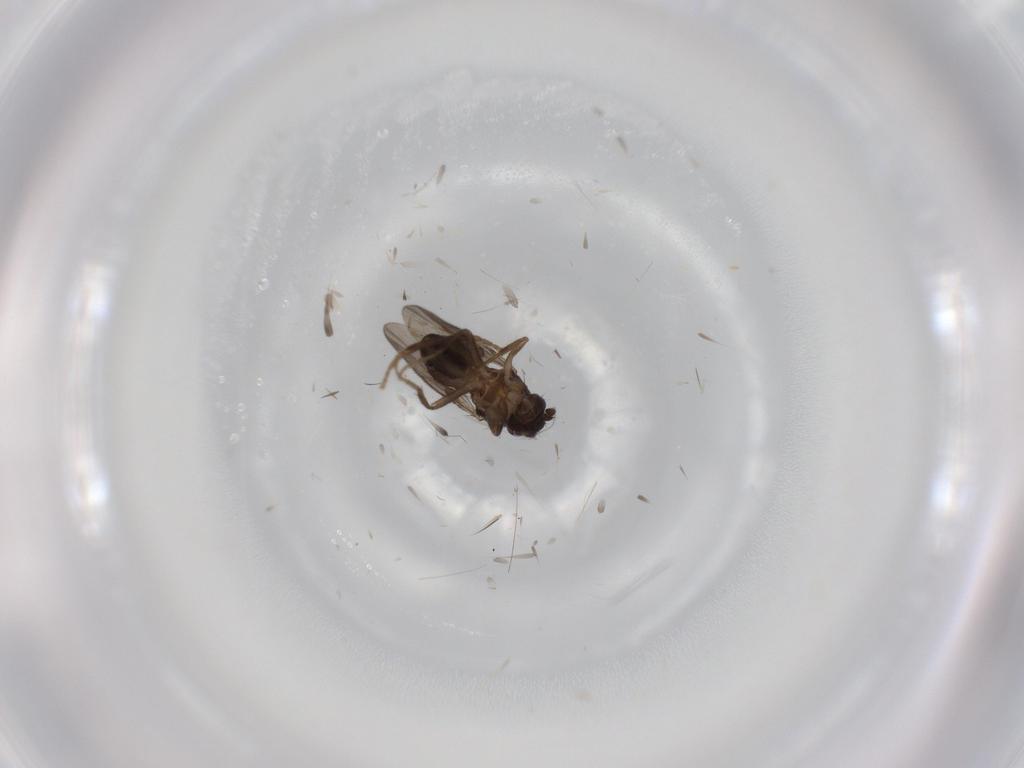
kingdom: Animalia
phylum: Arthropoda
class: Insecta
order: Diptera
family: Sphaeroceridae
